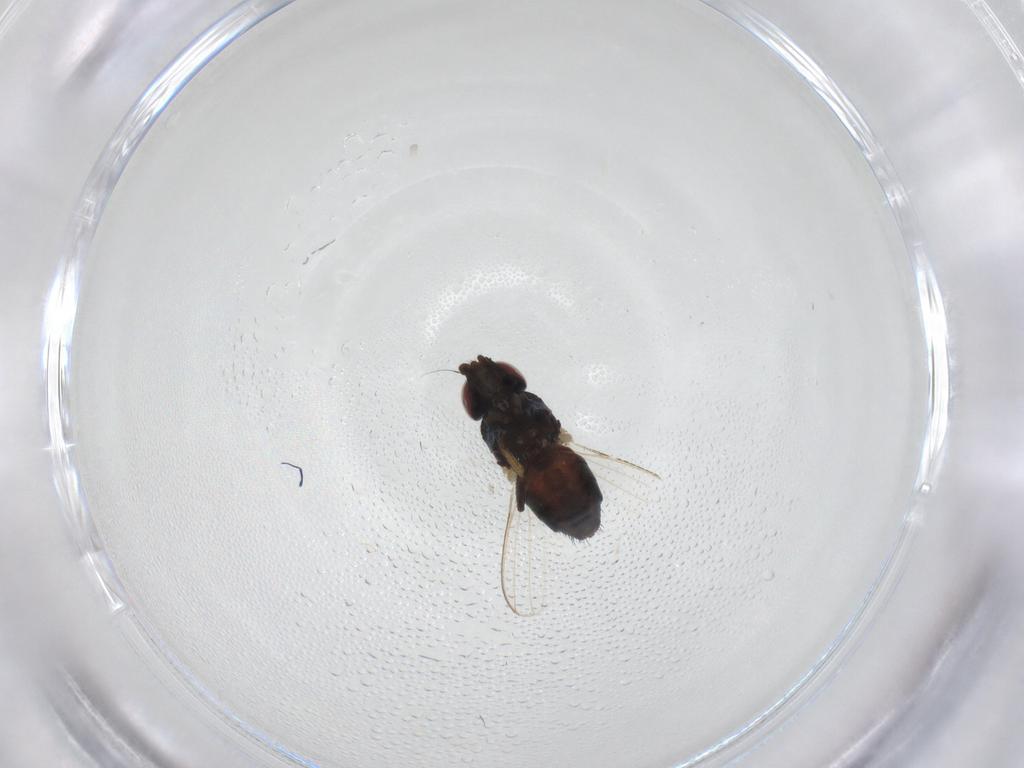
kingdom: Animalia
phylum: Arthropoda
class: Insecta
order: Diptera
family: Milichiidae
